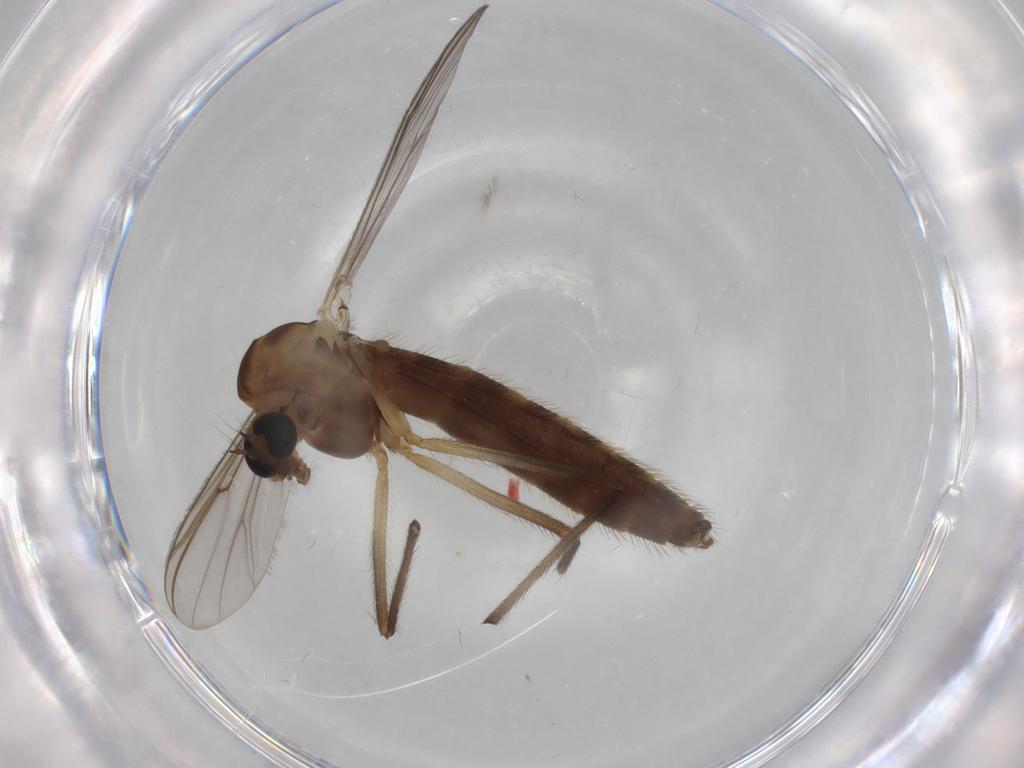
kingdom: Animalia
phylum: Arthropoda
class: Insecta
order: Diptera
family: Chironomidae
